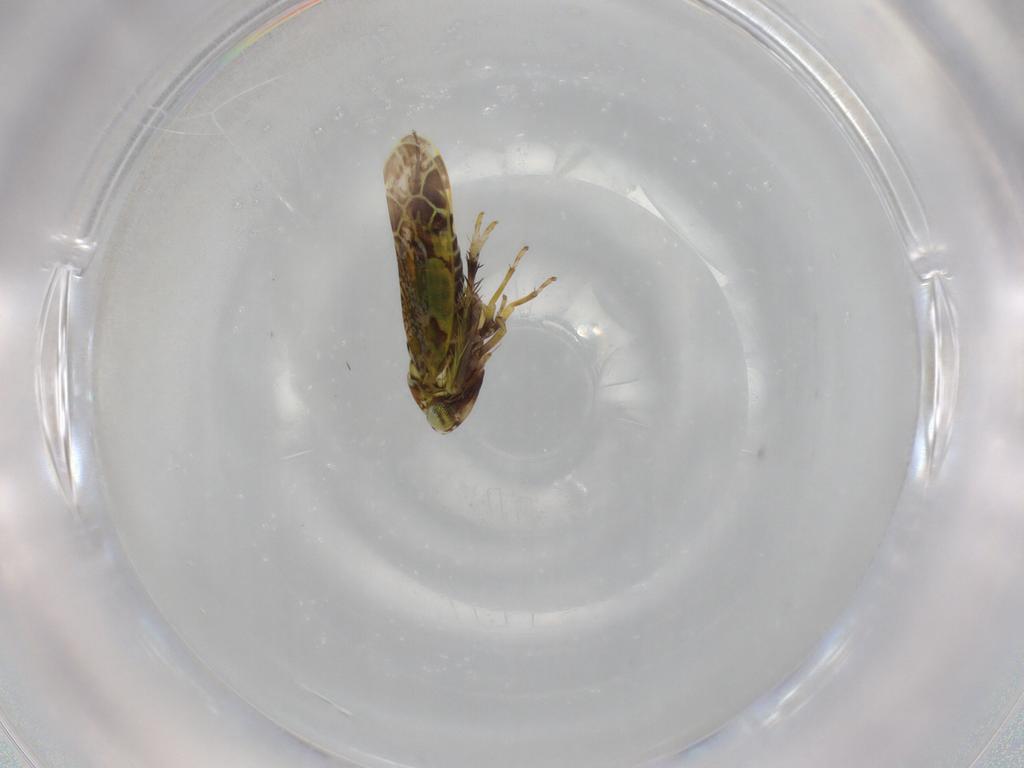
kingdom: Animalia
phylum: Arthropoda
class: Insecta
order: Hemiptera
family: Cicadellidae
